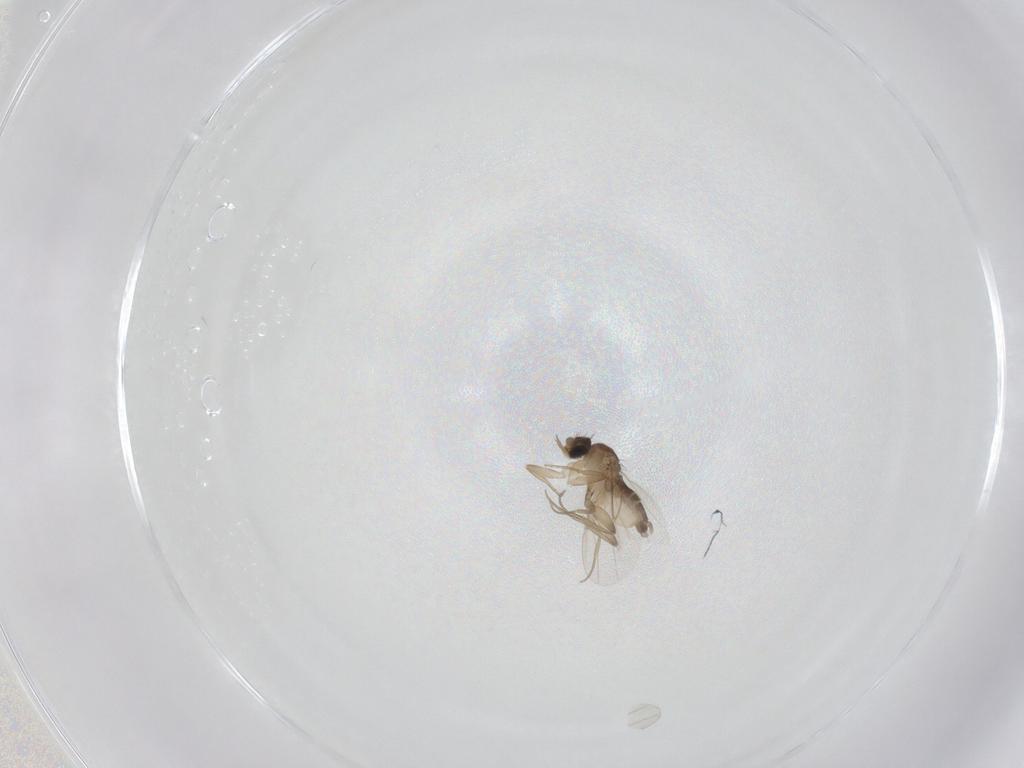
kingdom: Animalia
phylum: Arthropoda
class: Insecta
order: Diptera
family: Phoridae
